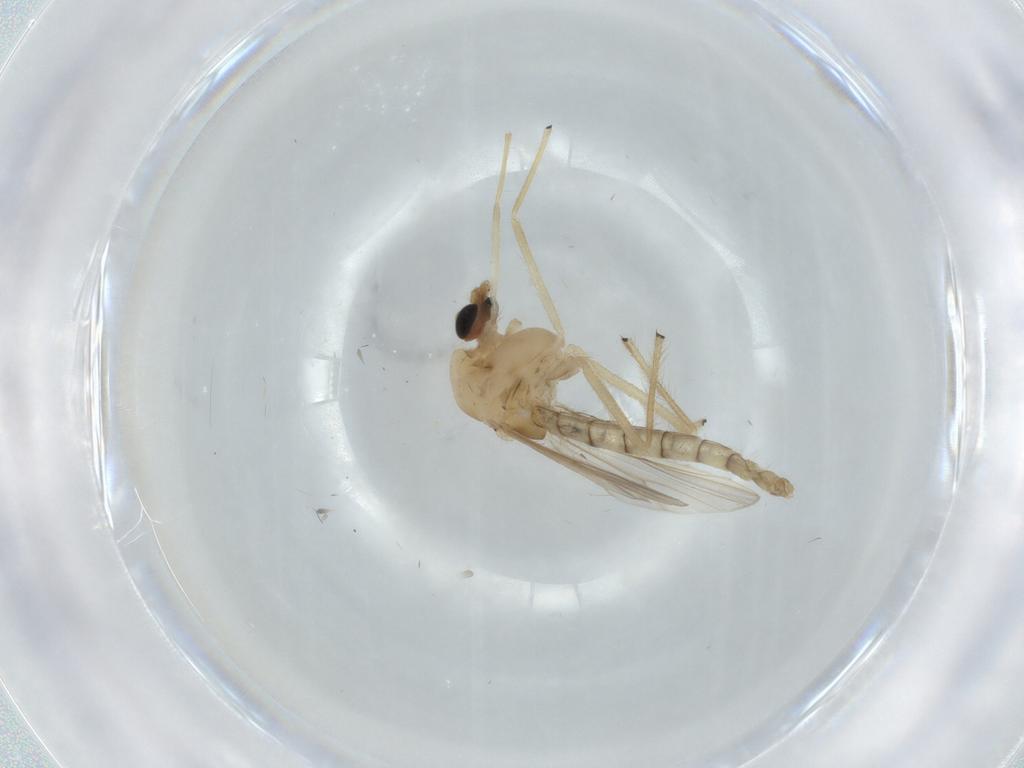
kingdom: Animalia
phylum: Arthropoda
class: Insecta
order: Diptera
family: Chironomidae
